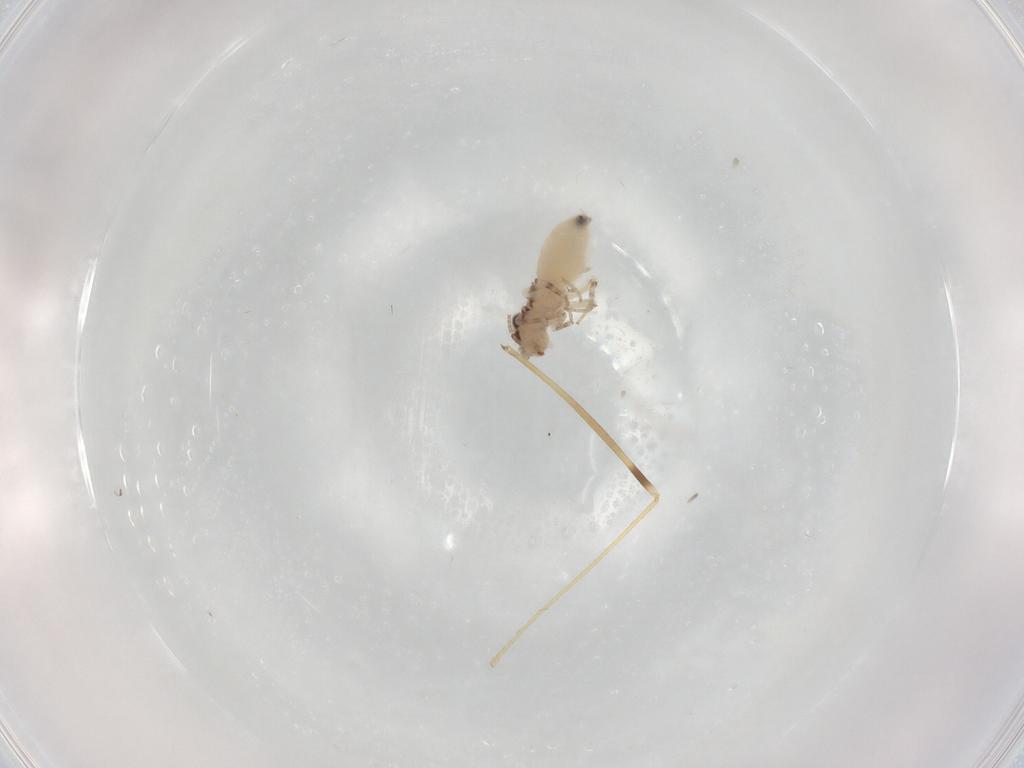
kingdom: Animalia
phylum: Arthropoda
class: Insecta
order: Psocodea
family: Lepidopsocidae
